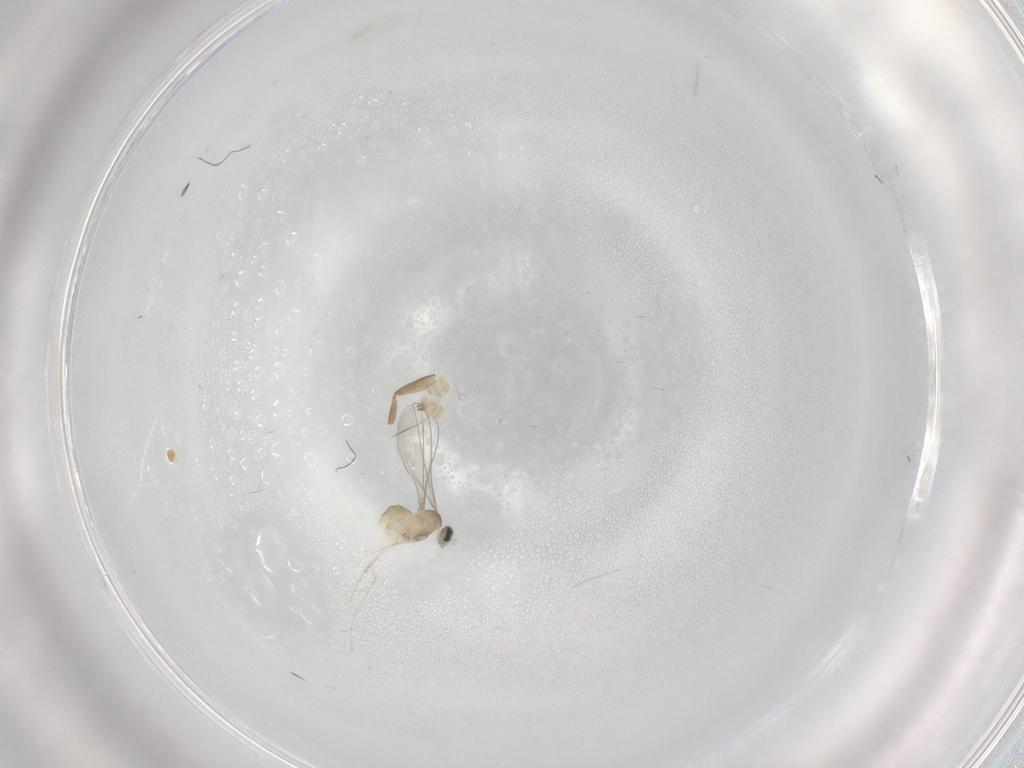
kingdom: Animalia
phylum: Arthropoda
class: Insecta
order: Diptera
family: Cecidomyiidae
